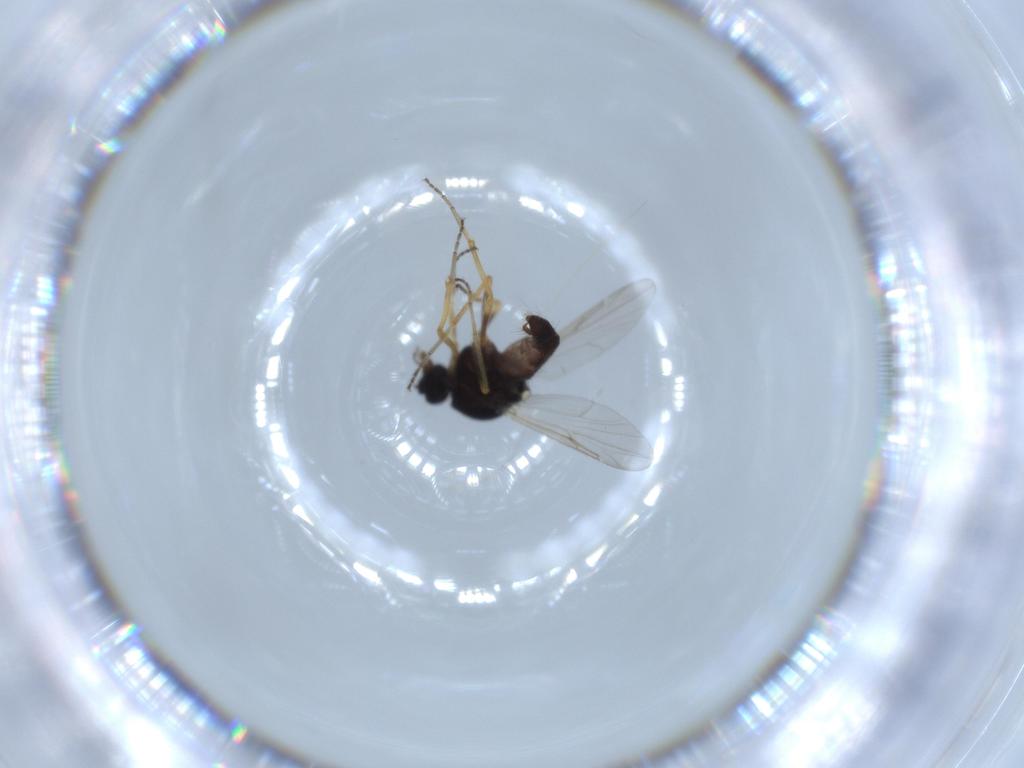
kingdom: Animalia
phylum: Arthropoda
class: Insecta
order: Diptera
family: Ceratopogonidae
